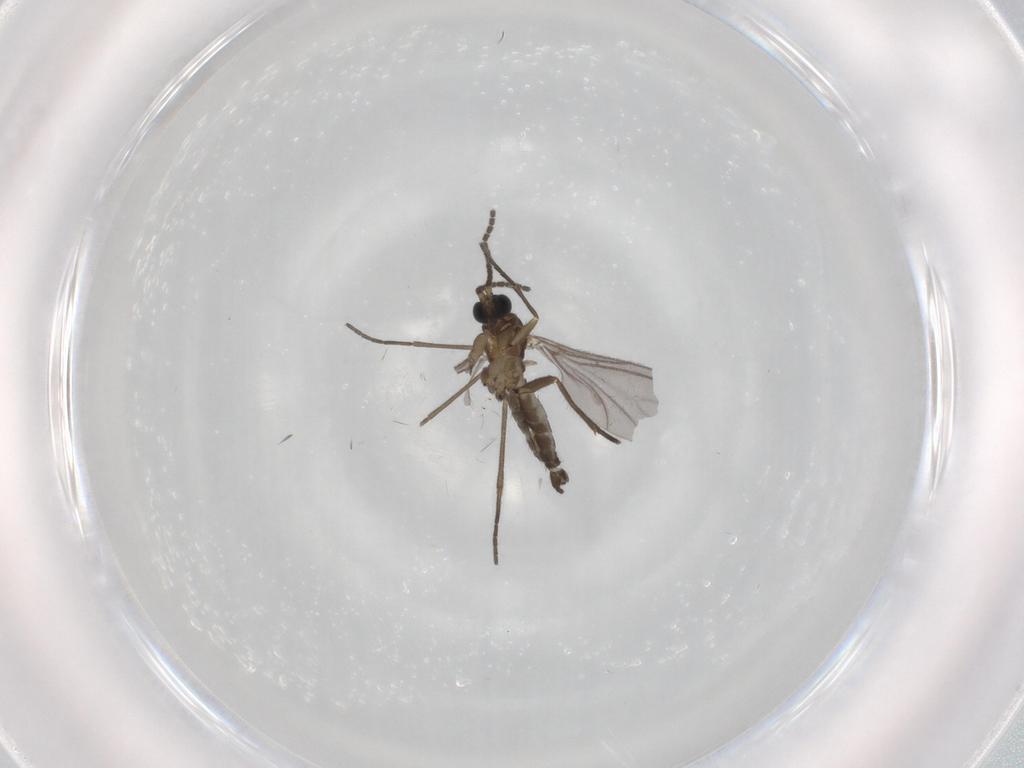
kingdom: Animalia
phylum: Arthropoda
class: Insecta
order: Diptera
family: Sciaridae
